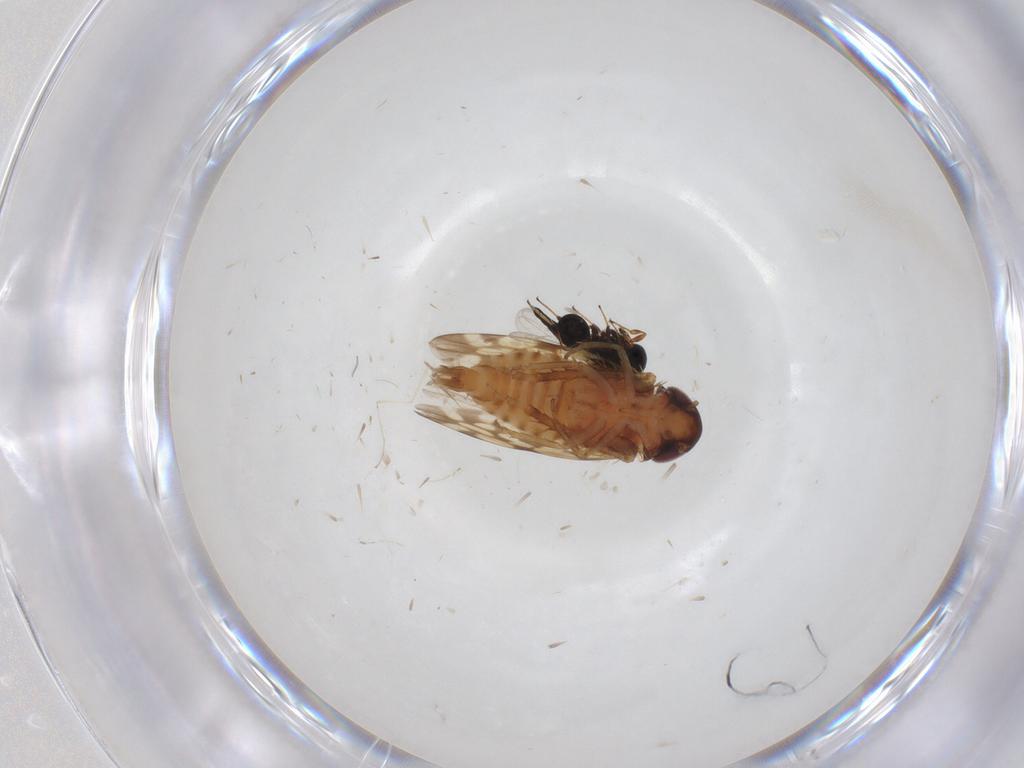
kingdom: Animalia
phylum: Arthropoda
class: Insecta
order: Hemiptera
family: Cicadellidae
